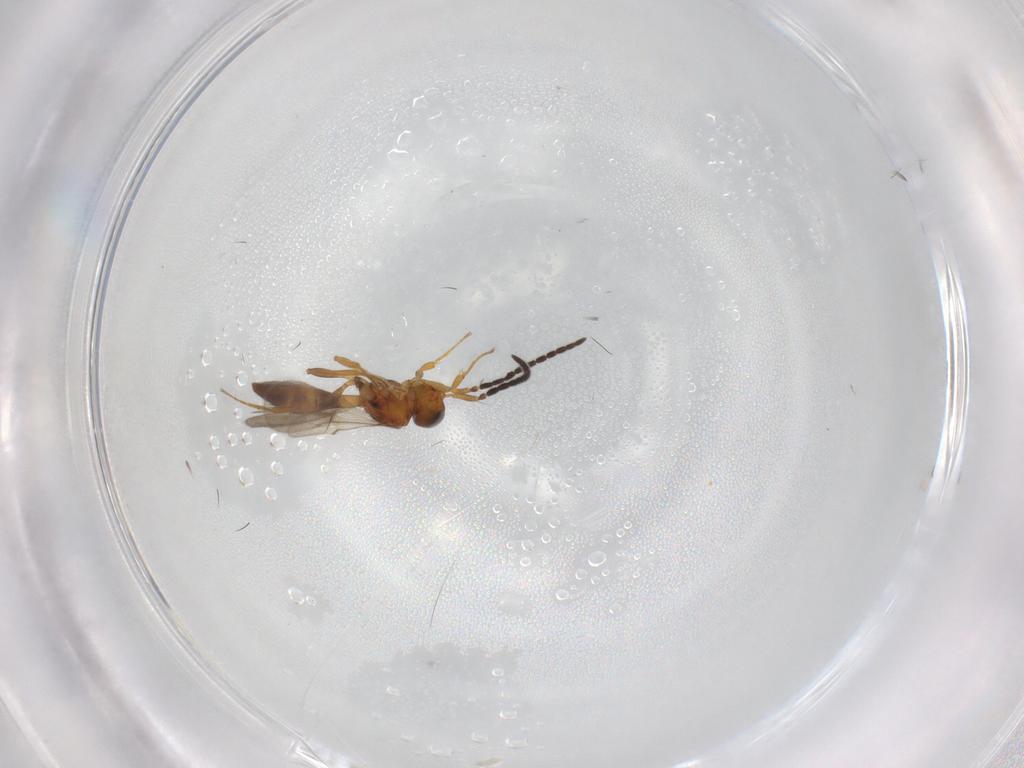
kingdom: Animalia
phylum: Arthropoda
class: Insecta
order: Hymenoptera
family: Scelionidae
